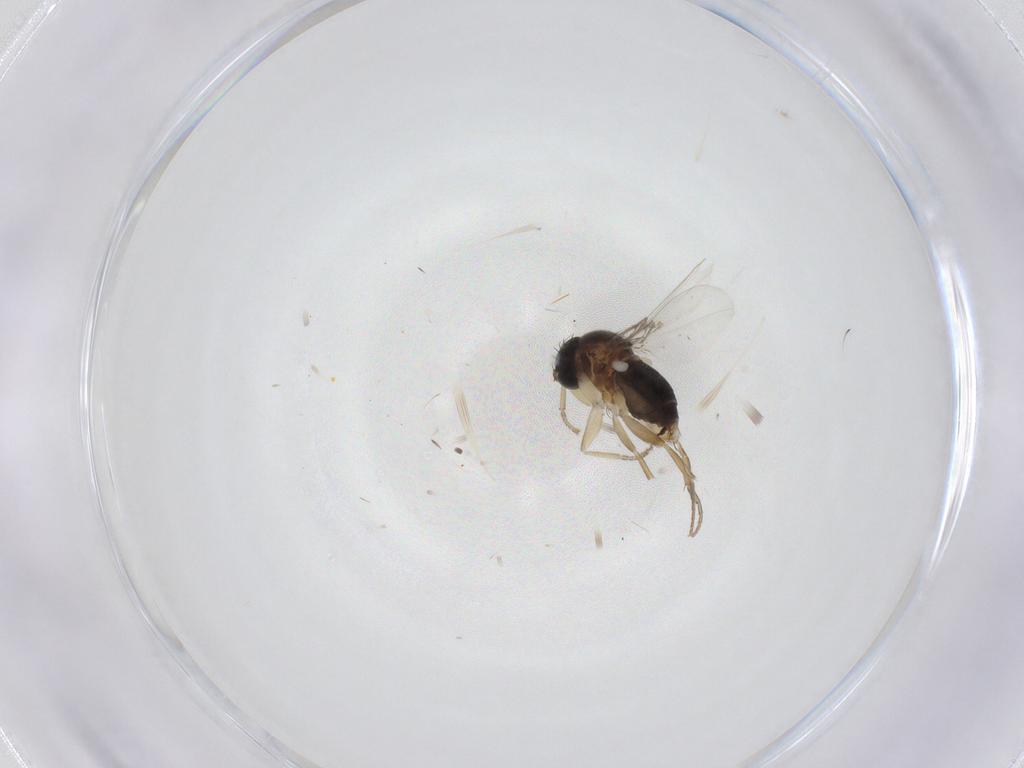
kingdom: Animalia
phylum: Arthropoda
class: Insecta
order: Diptera
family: Phoridae
